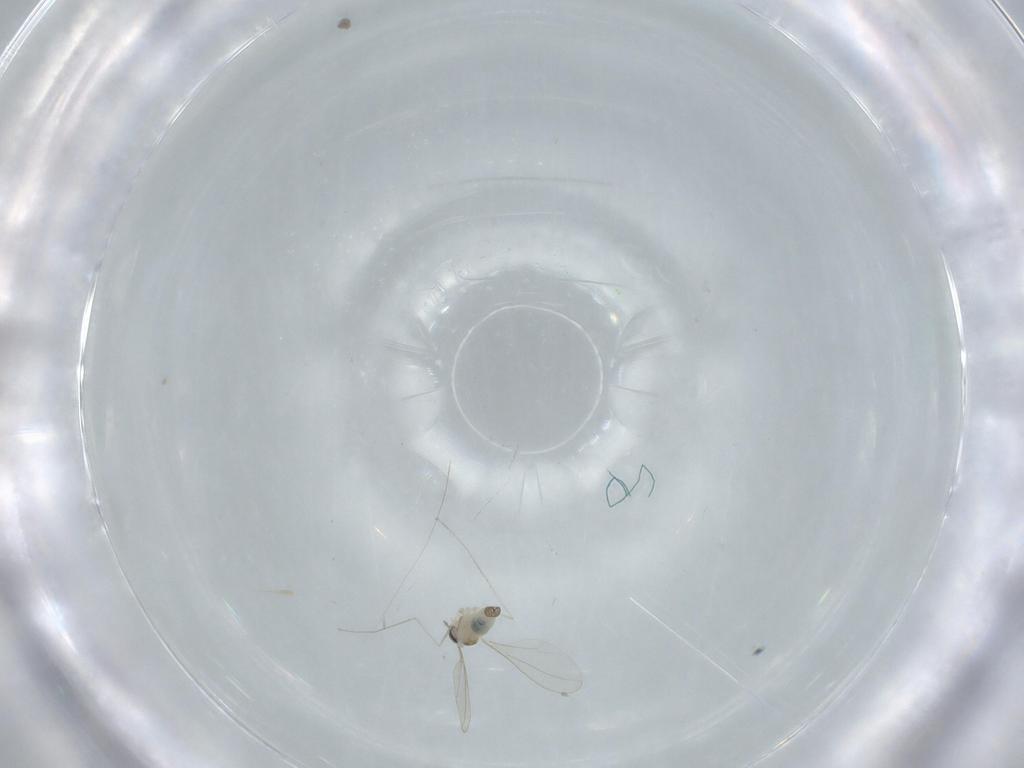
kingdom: Animalia
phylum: Arthropoda
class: Insecta
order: Diptera
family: Cecidomyiidae
